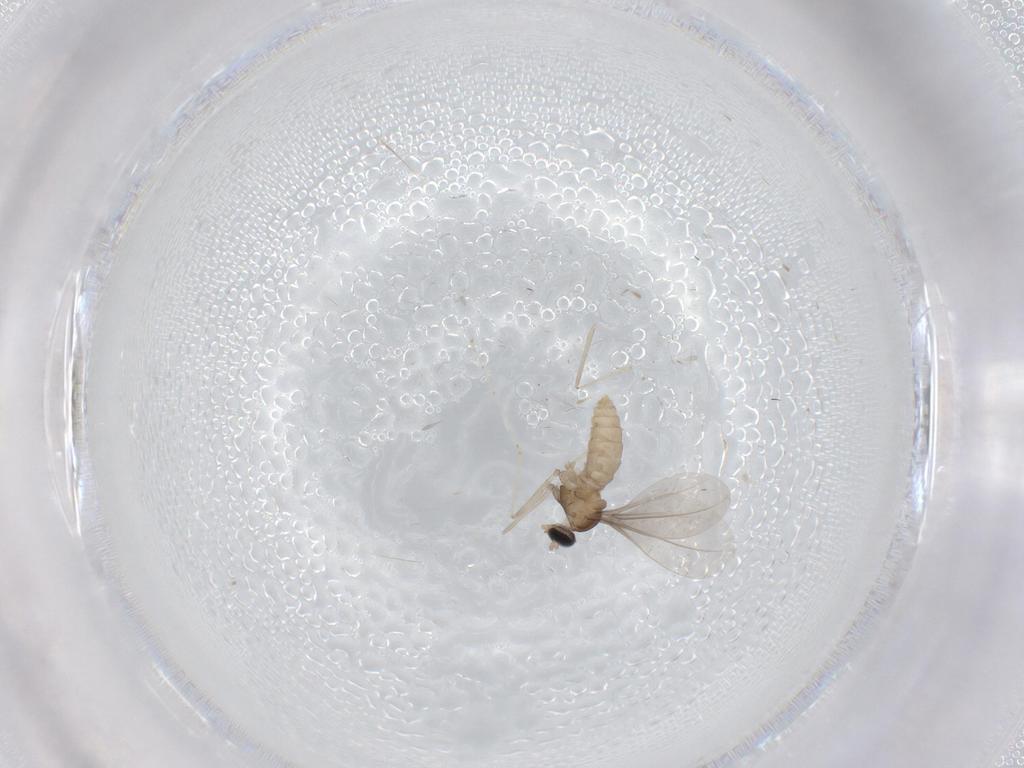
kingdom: Animalia
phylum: Arthropoda
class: Insecta
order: Diptera
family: Cecidomyiidae
